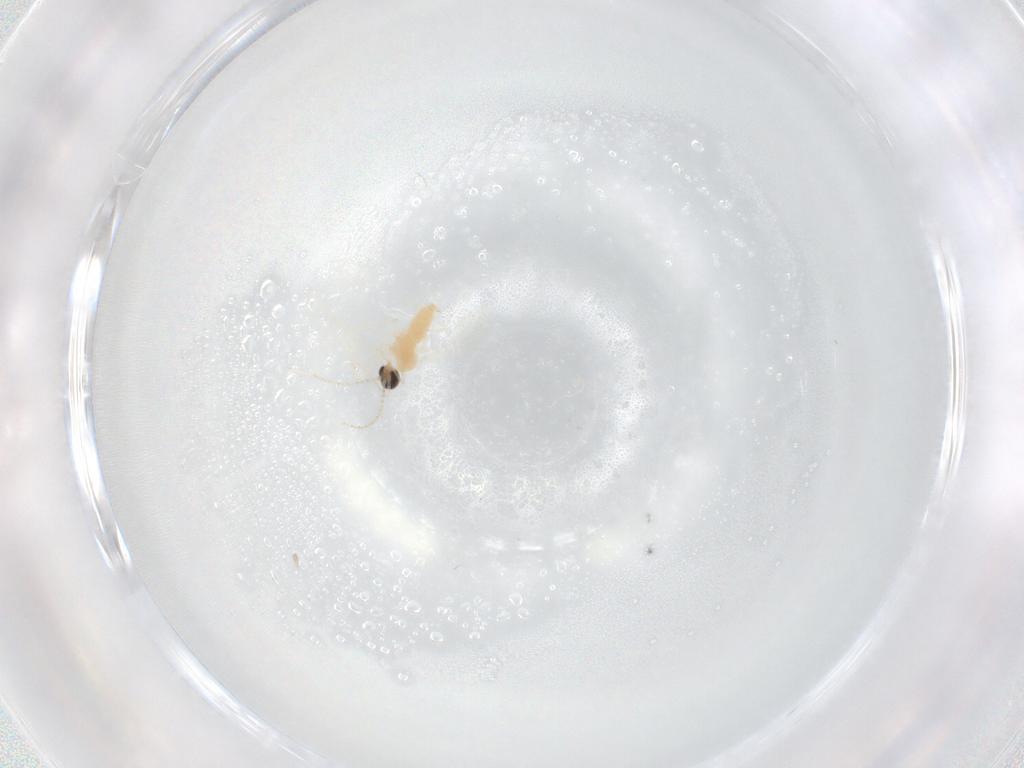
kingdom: Animalia
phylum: Arthropoda
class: Insecta
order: Diptera
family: Cecidomyiidae
